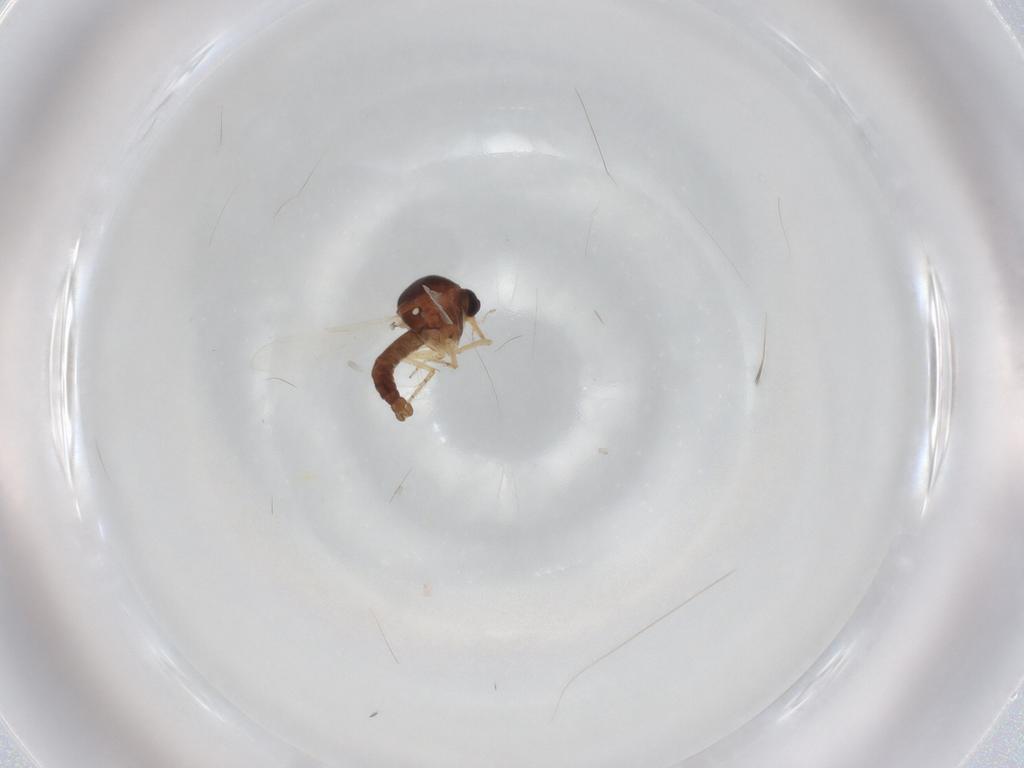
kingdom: Animalia
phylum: Arthropoda
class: Insecta
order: Diptera
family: Ceratopogonidae
